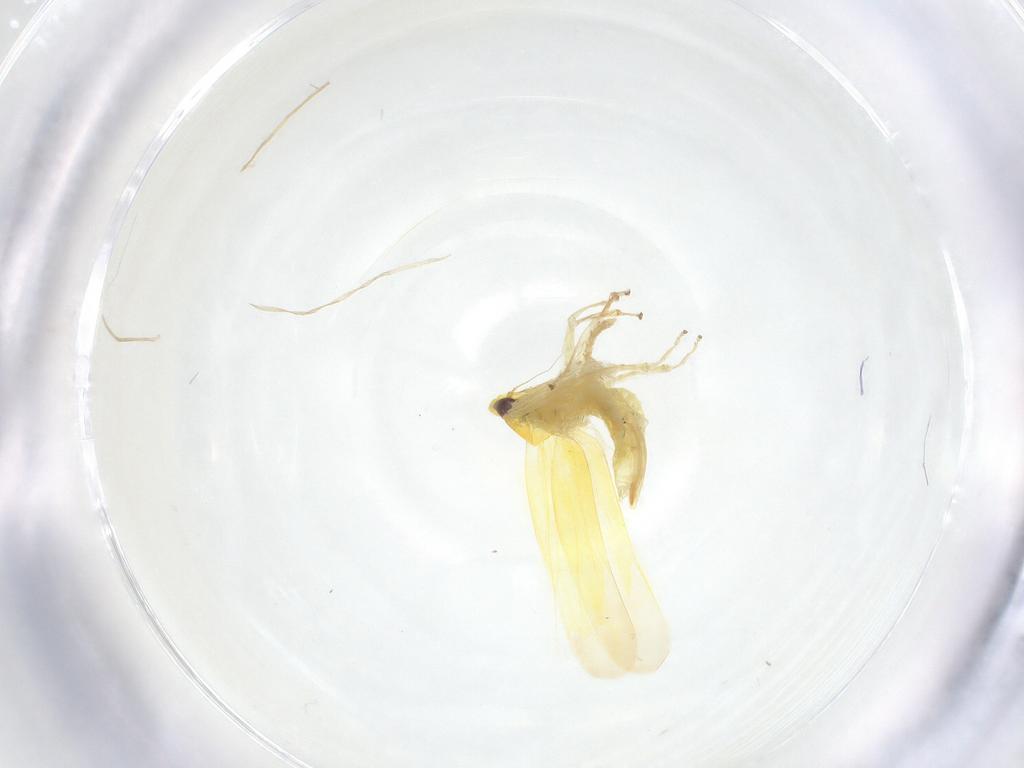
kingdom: Animalia
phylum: Arthropoda
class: Insecta
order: Hemiptera
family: Cicadellidae
